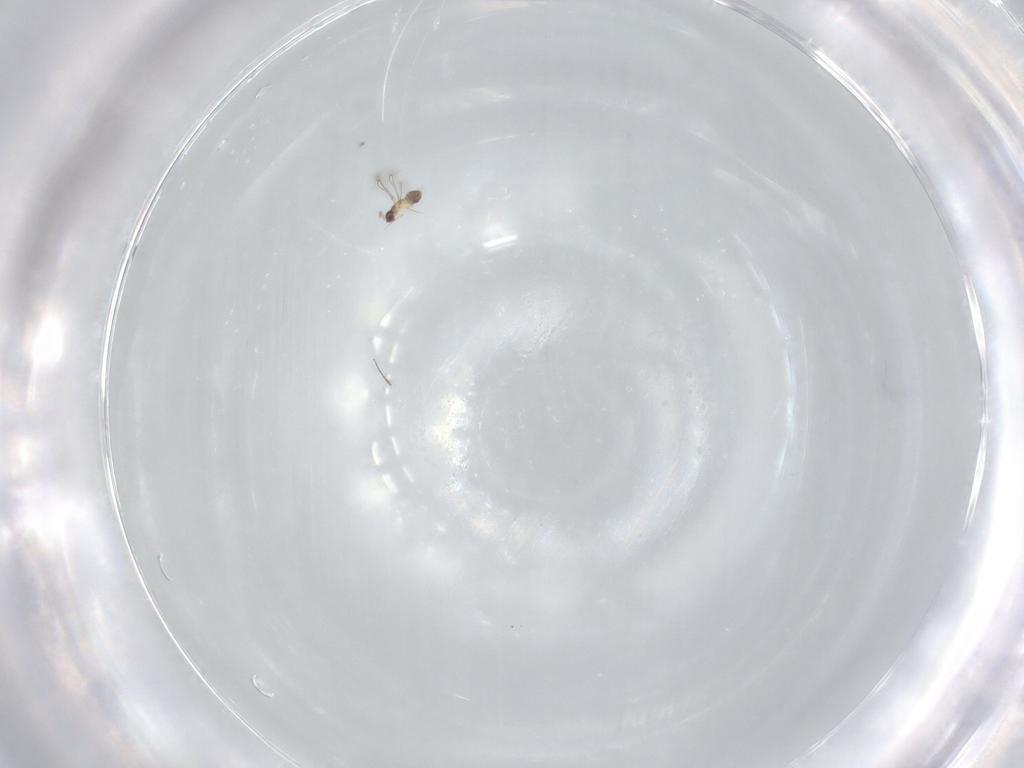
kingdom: Animalia
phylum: Arthropoda
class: Insecta
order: Hymenoptera
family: Mymaridae
